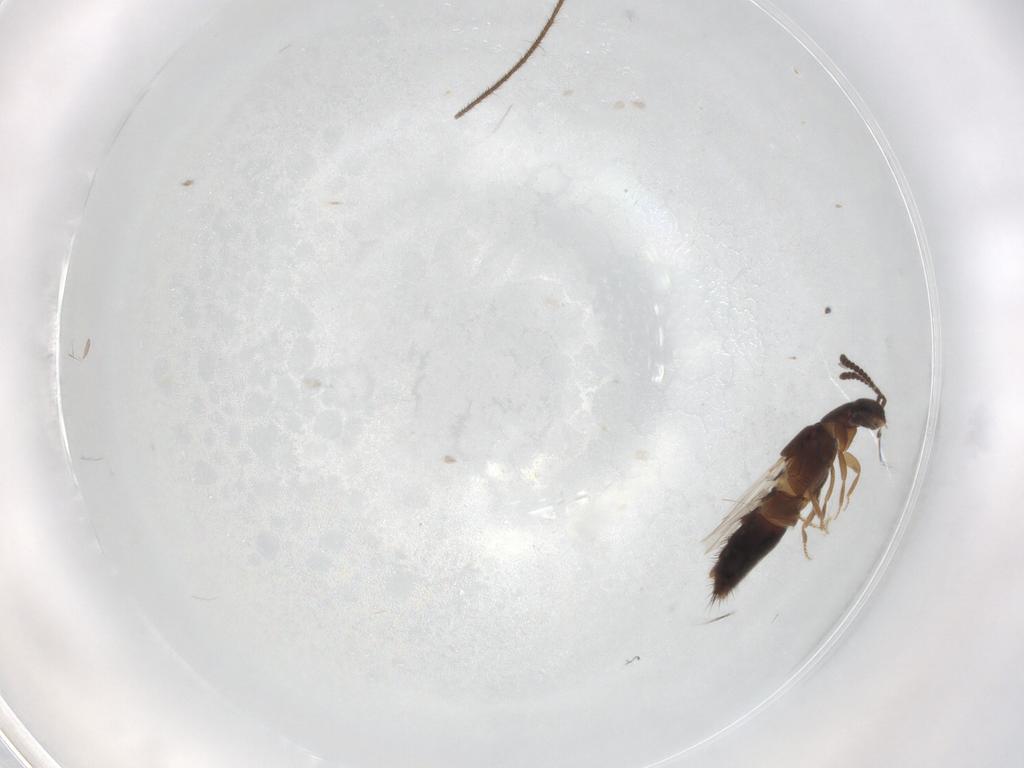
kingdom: Animalia
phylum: Arthropoda
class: Insecta
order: Coleoptera
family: Staphylinidae
